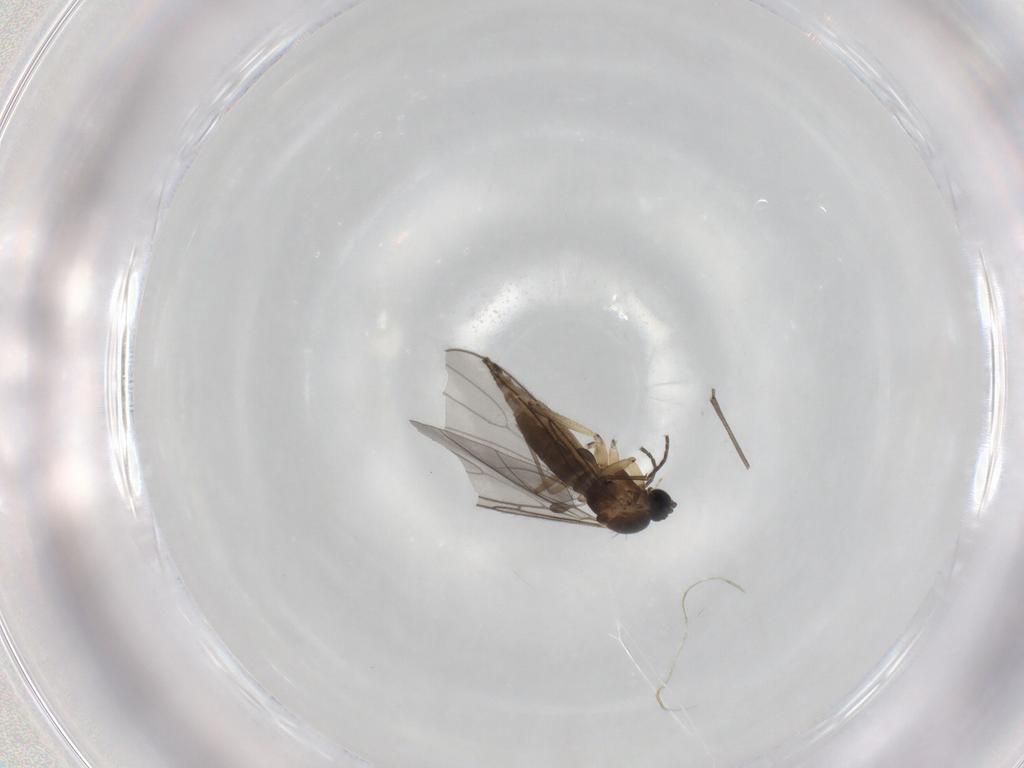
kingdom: Animalia
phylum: Arthropoda
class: Insecta
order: Diptera
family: Sciaridae
